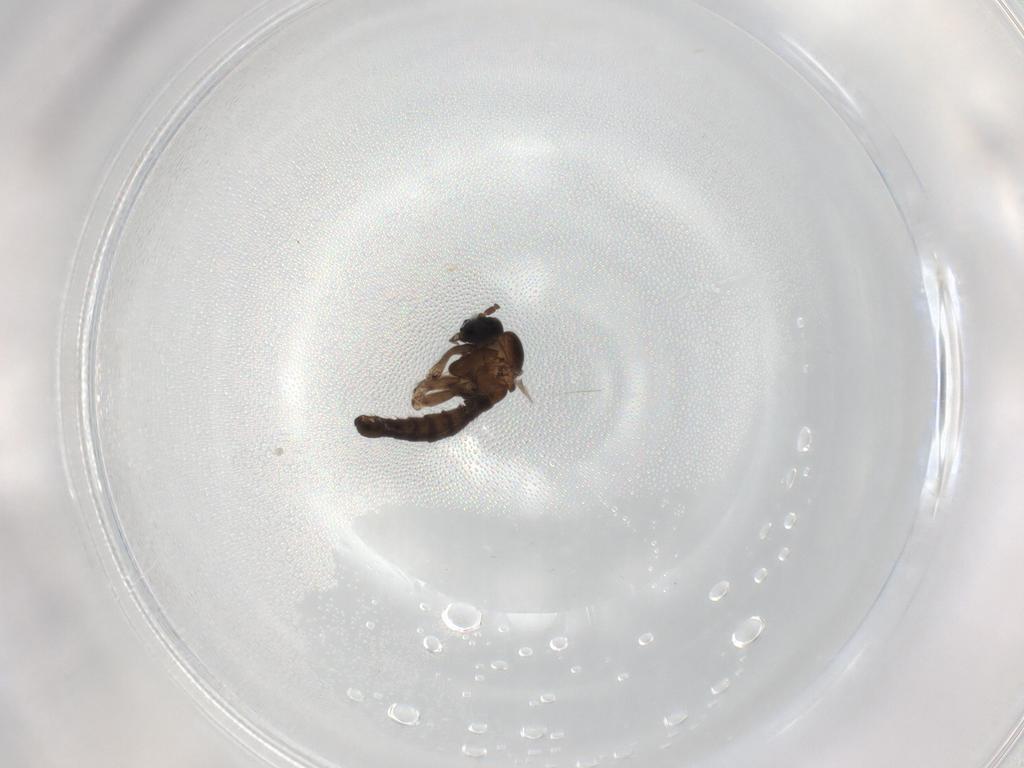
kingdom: Animalia
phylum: Arthropoda
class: Insecta
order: Diptera
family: Sciaridae
